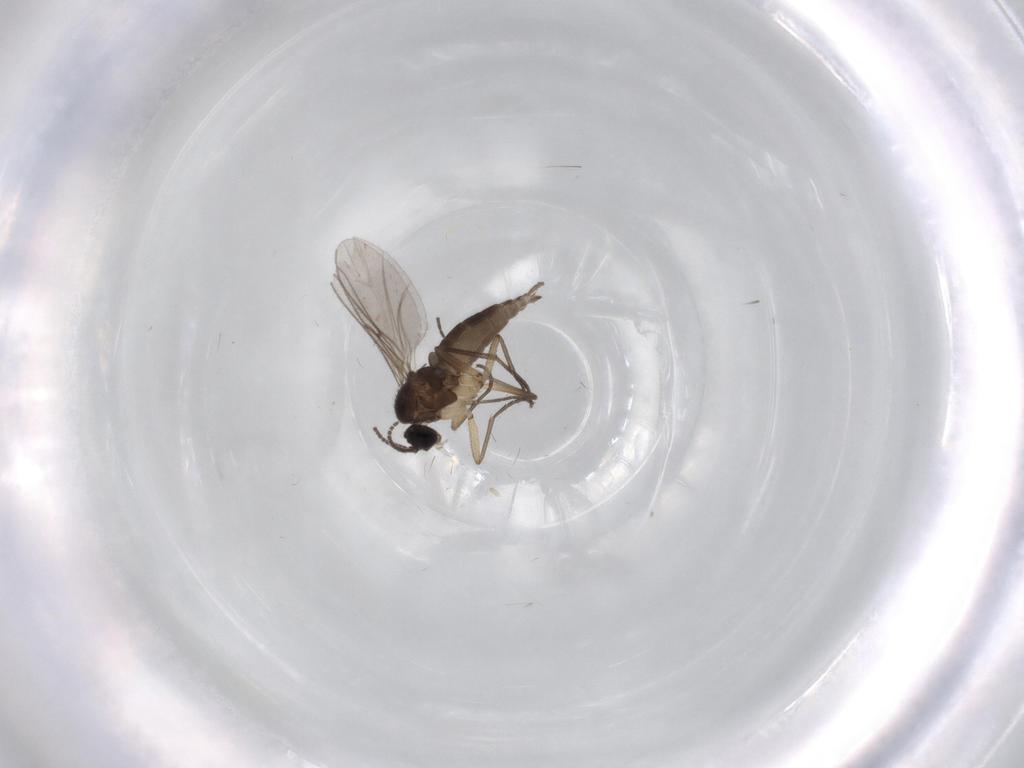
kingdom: Animalia
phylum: Arthropoda
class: Insecta
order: Diptera
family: Sciaridae
